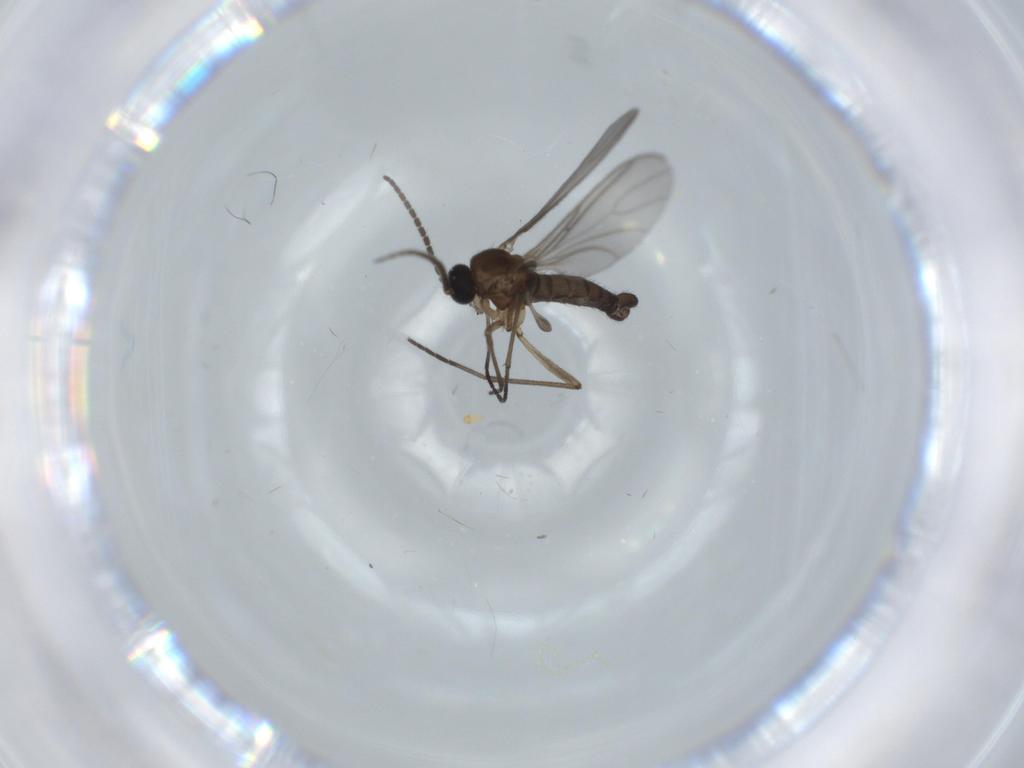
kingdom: Animalia
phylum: Arthropoda
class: Insecta
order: Diptera
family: Sciaridae
